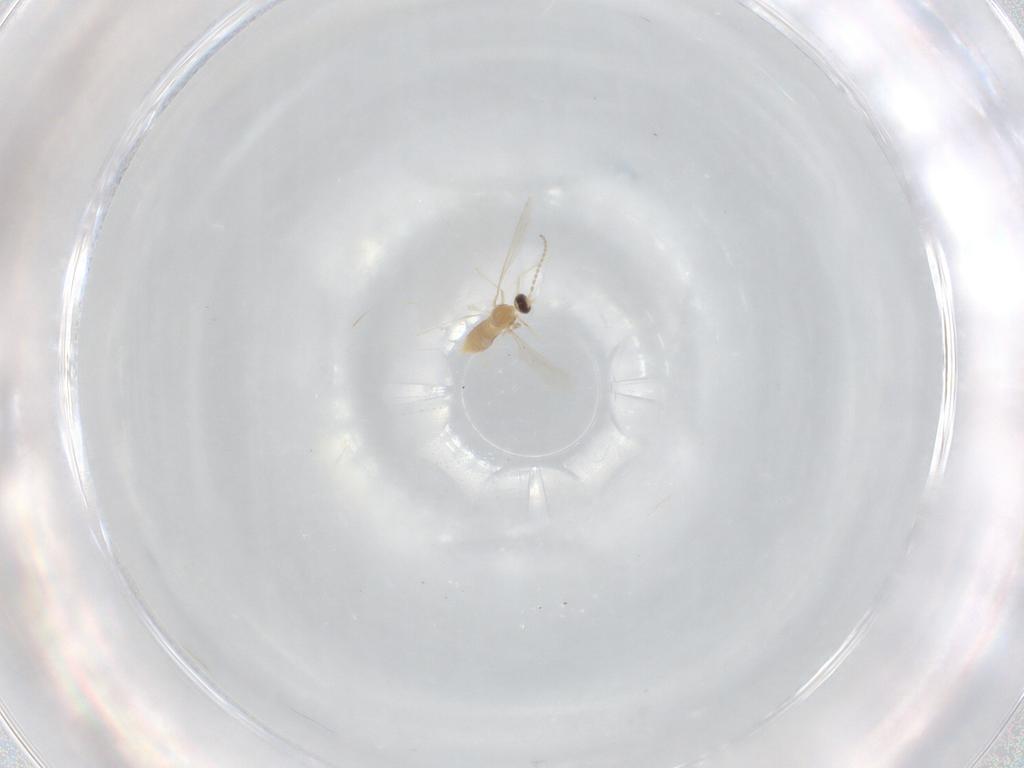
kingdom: Animalia
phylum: Arthropoda
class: Insecta
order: Diptera
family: Cecidomyiidae
